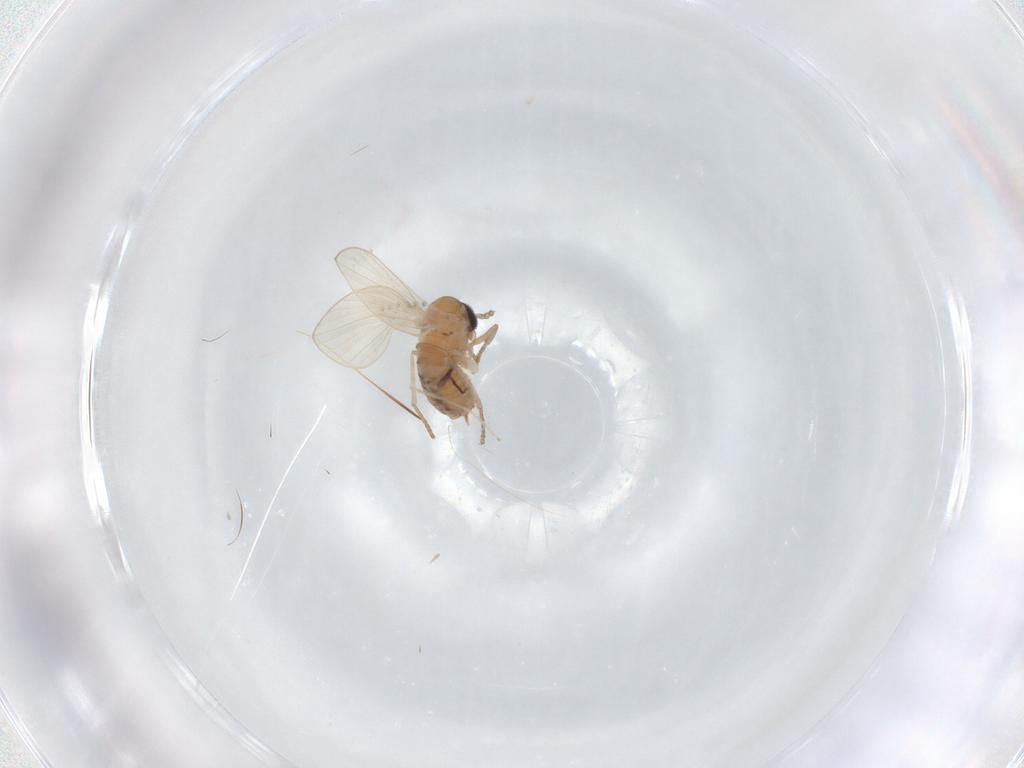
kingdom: Animalia
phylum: Arthropoda
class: Insecta
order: Diptera
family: Psychodidae
